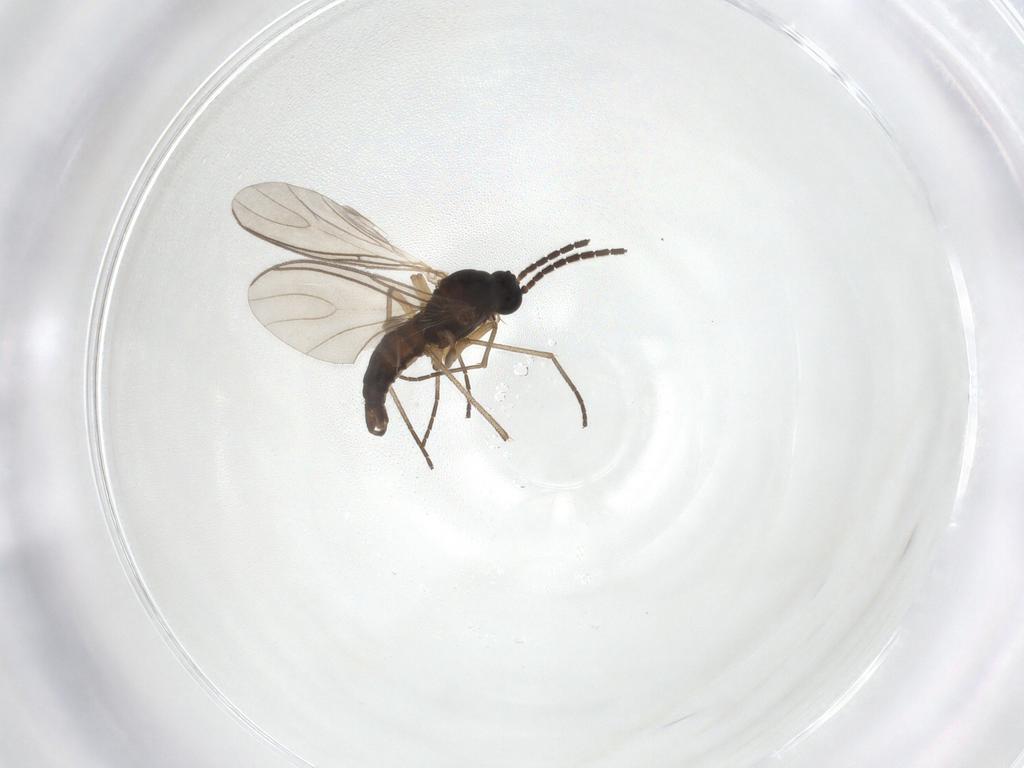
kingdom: Animalia
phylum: Arthropoda
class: Insecta
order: Diptera
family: Sciaridae
